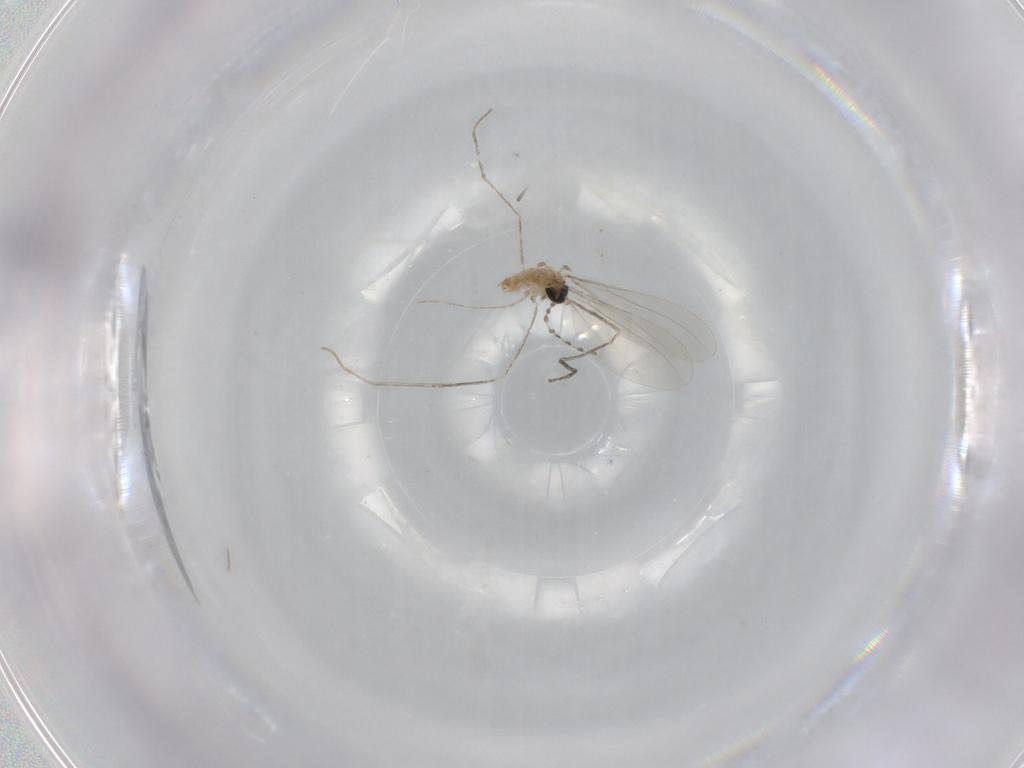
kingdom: Animalia
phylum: Arthropoda
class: Insecta
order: Diptera
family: Cecidomyiidae
